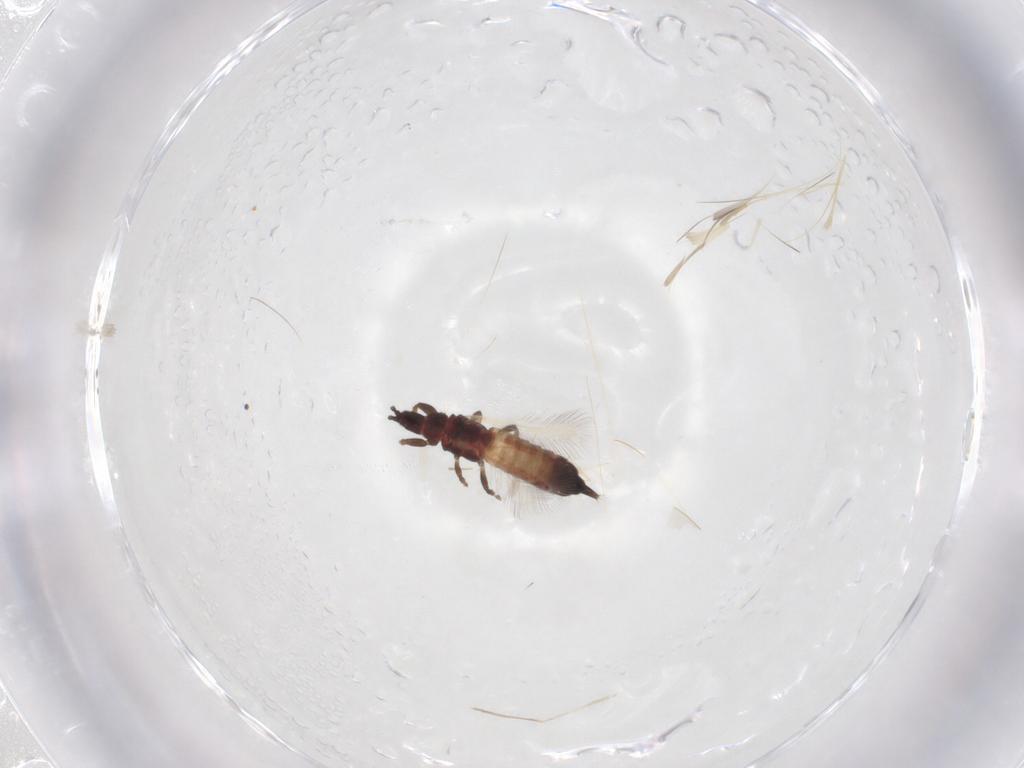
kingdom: Animalia
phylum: Arthropoda
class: Insecta
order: Thysanoptera
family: Phlaeothripidae
